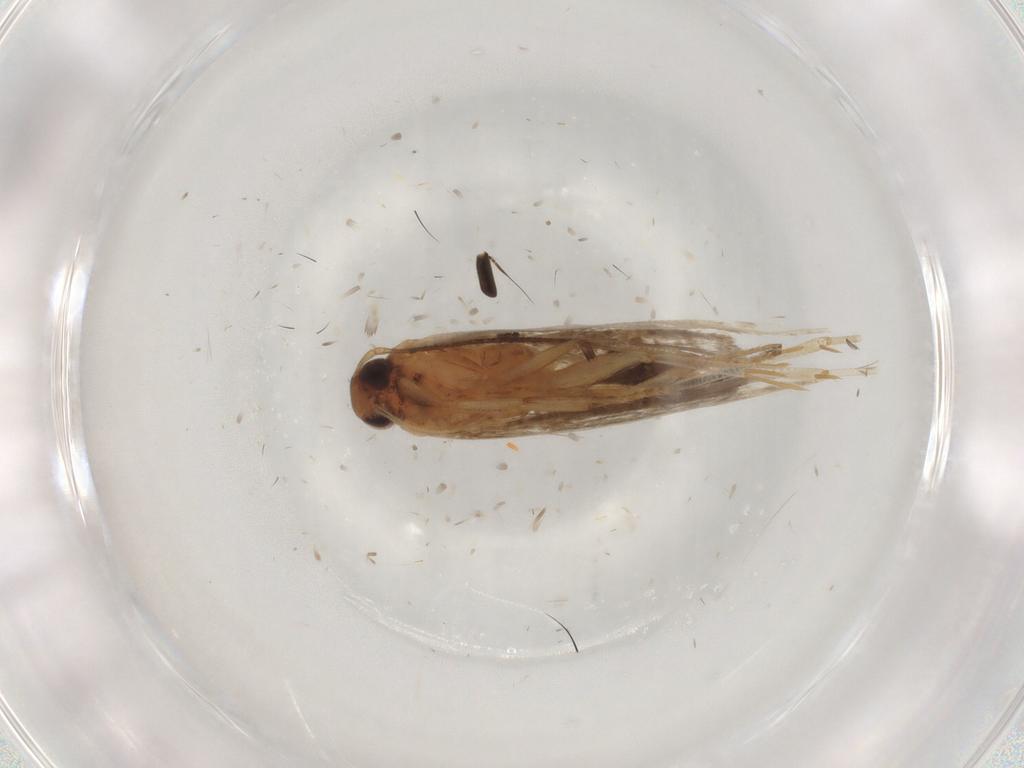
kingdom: Animalia
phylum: Arthropoda
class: Insecta
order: Lepidoptera
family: Gelechiidae
